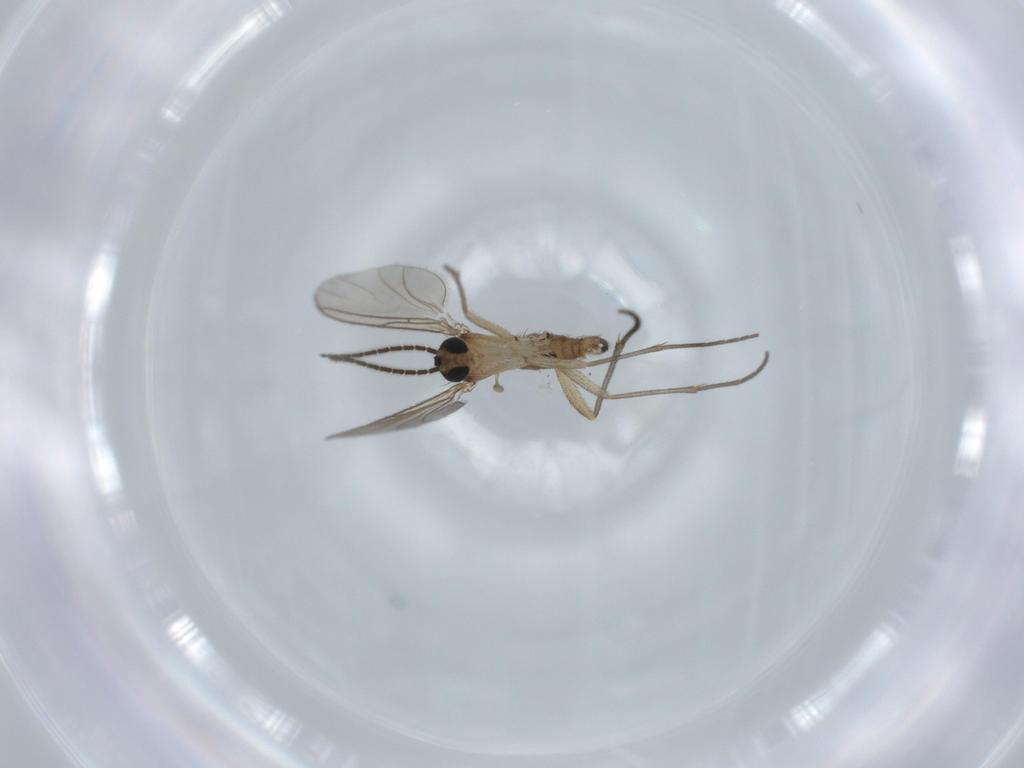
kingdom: Animalia
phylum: Arthropoda
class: Insecta
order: Diptera
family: Sciaridae
